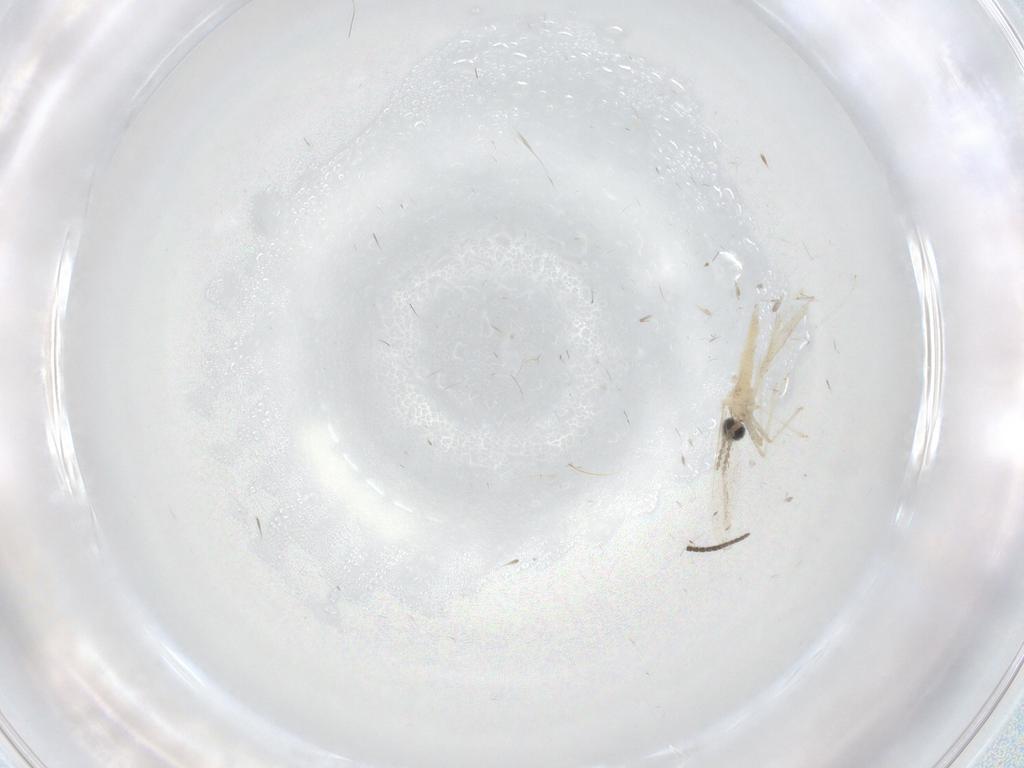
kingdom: Animalia
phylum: Arthropoda
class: Insecta
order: Diptera
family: Cecidomyiidae
